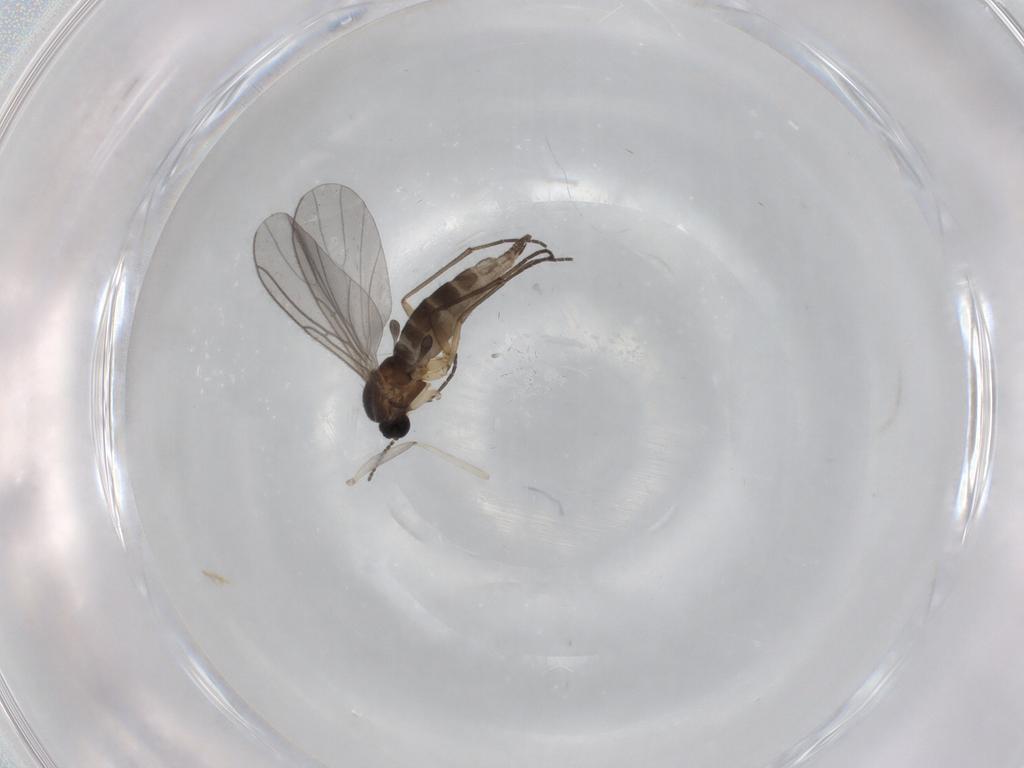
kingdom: Animalia
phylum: Arthropoda
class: Insecta
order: Diptera
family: Sciaridae
